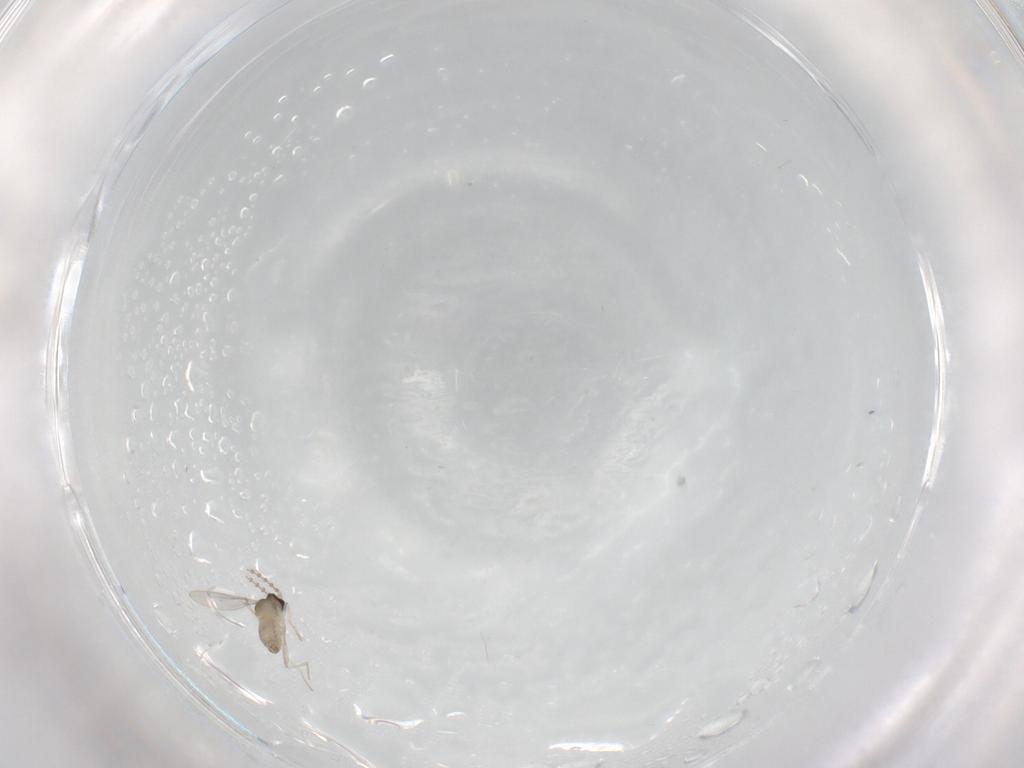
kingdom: Animalia
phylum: Arthropoda
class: Insecta
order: Diptera
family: Cecidomyiidae
